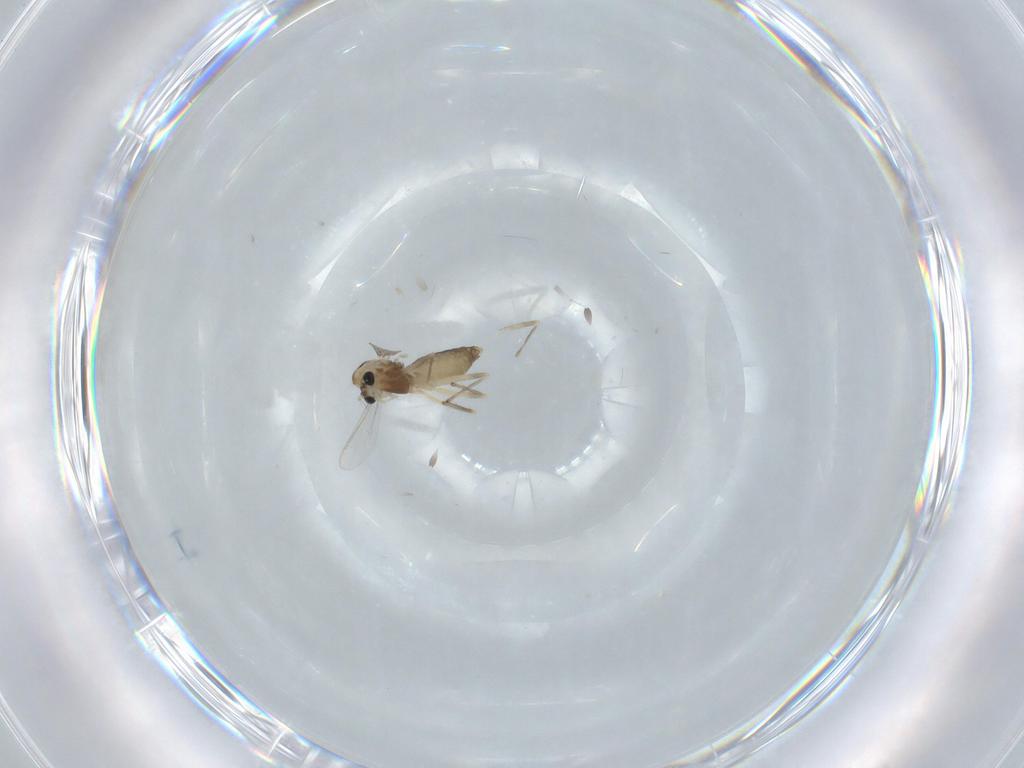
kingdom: Animalia
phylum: Arthropoda
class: Insecta
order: Diptera
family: Chironomidae
